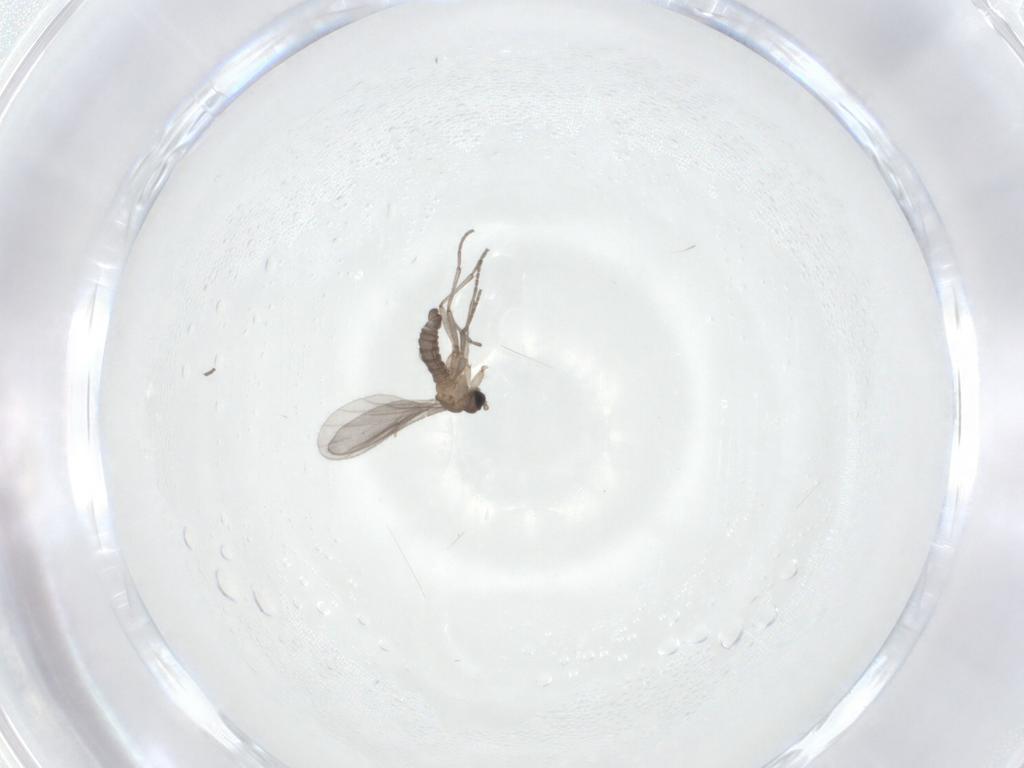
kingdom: Animalia
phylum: Arthropoda
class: Insecta
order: Diptera
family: Sciaridae
